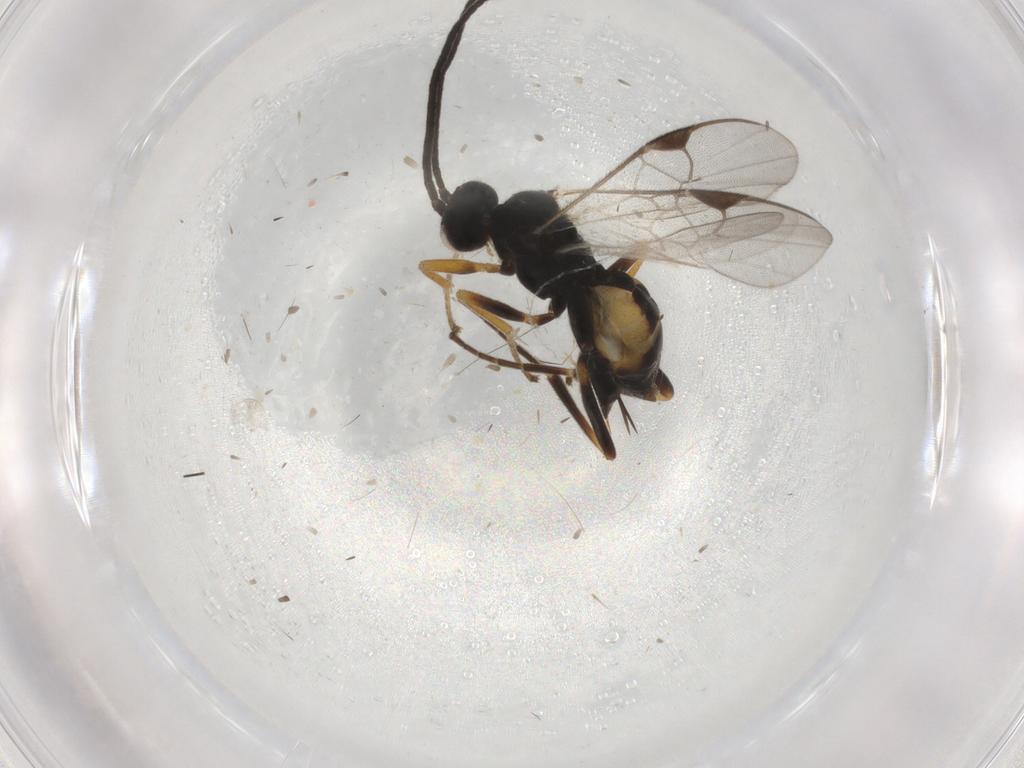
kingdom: Animalia
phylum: Arthropoda
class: Insecta
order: Hymenoptera
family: Braconidae
